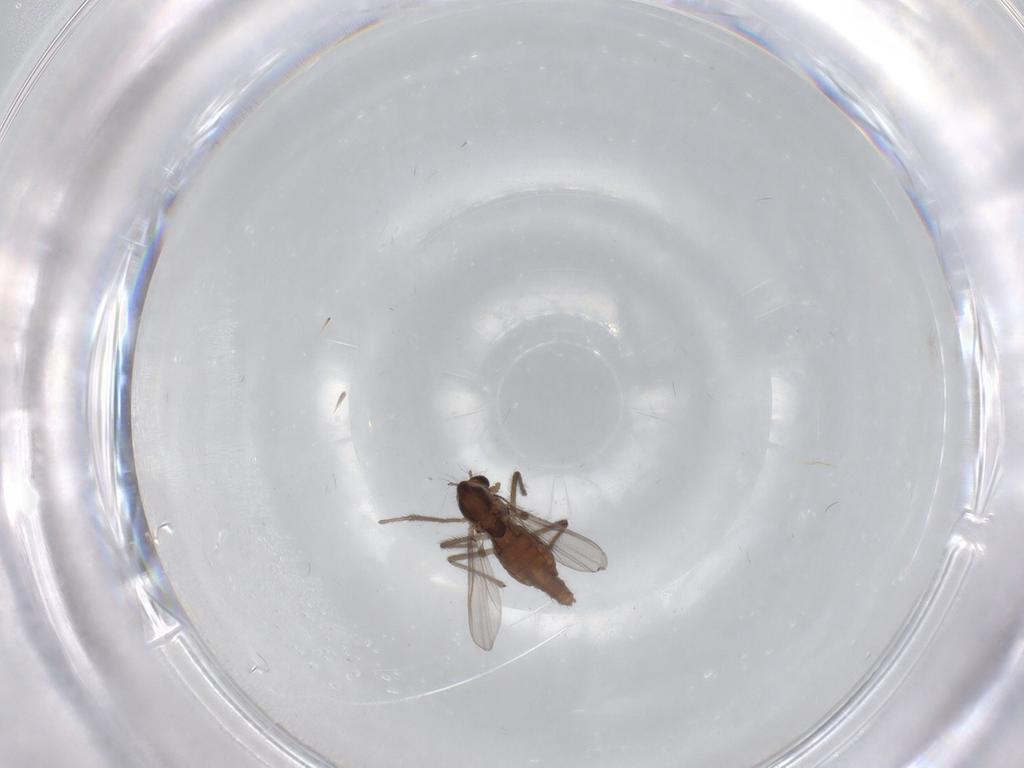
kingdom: Animalia
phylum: Arthropoda
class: Insecta
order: Diptera
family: Chironomidae
